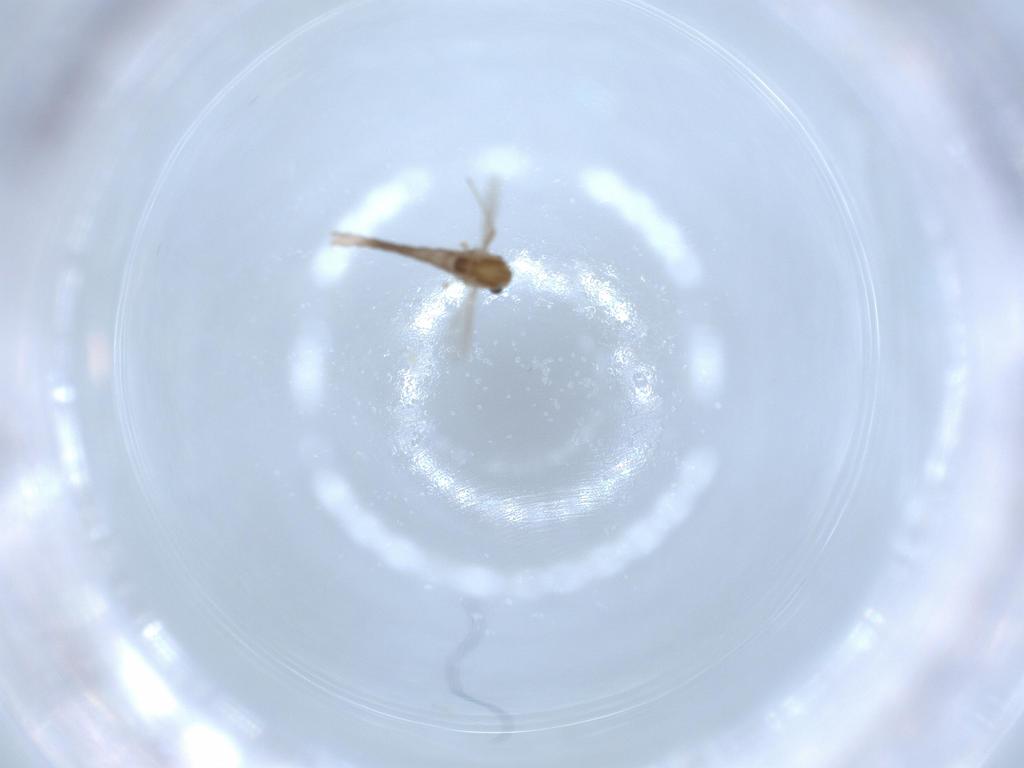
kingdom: Animalia
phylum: Arthropoda
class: Insecta
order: Diptera
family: Chironomidae
